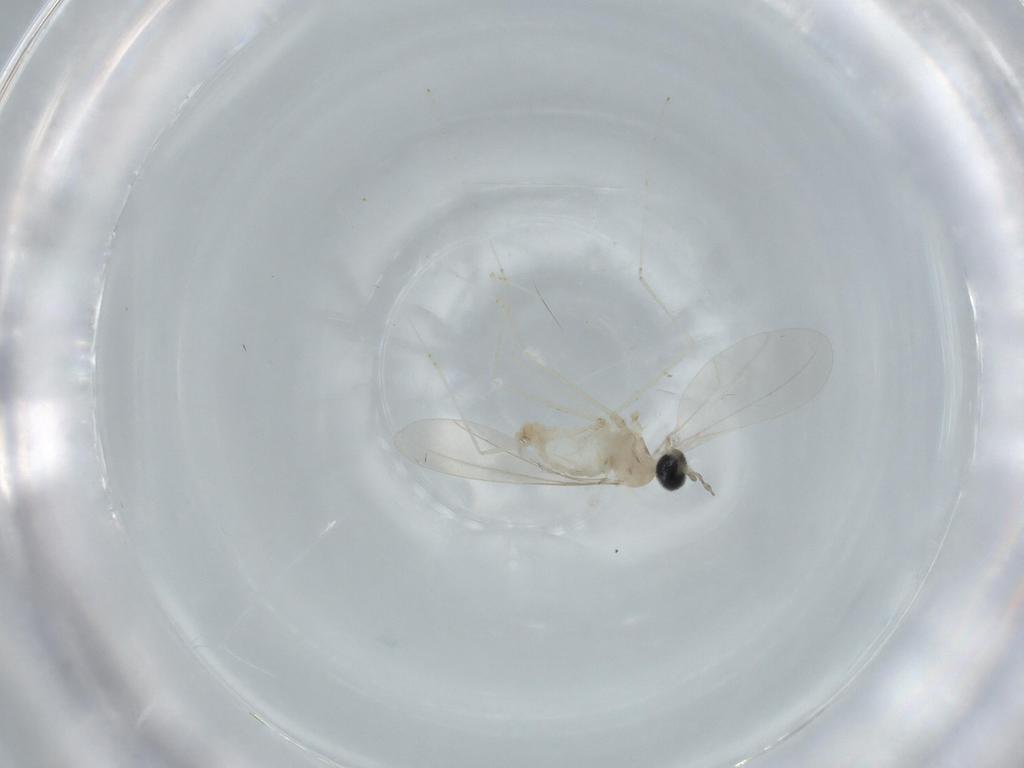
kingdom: Animalia
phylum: Arthropoda
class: Insecta
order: Diptera
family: Cecidomyiidae
